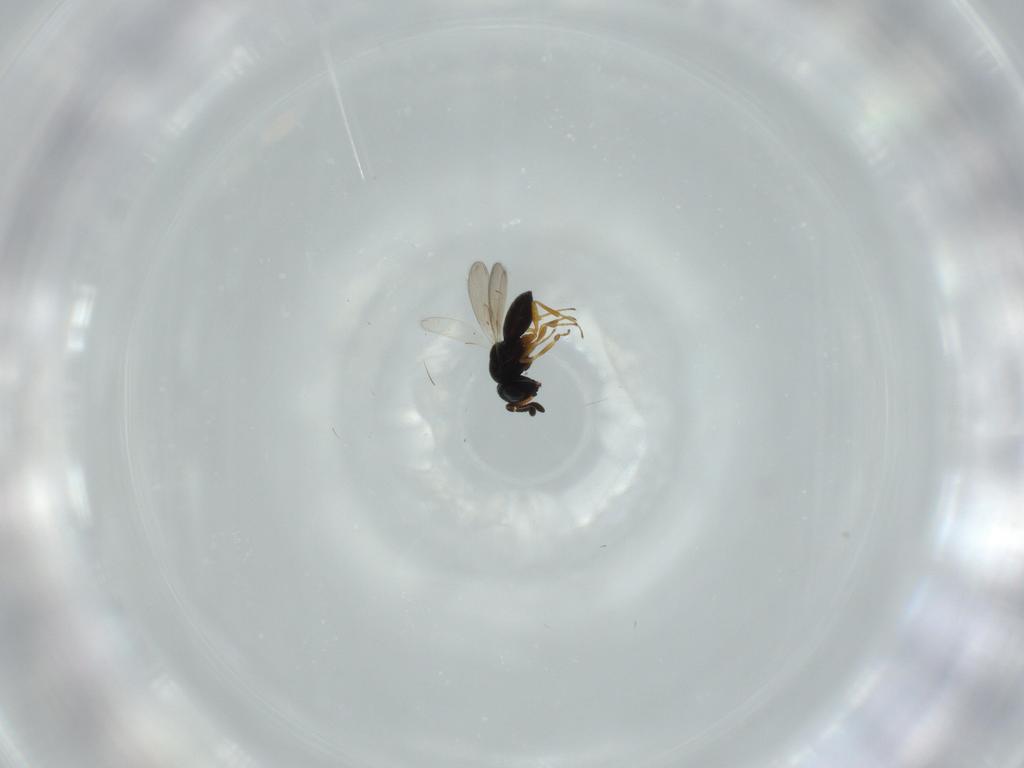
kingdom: Animalia
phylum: Arthropoda
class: Insecta
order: Hymenoptera
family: Scelionidae
